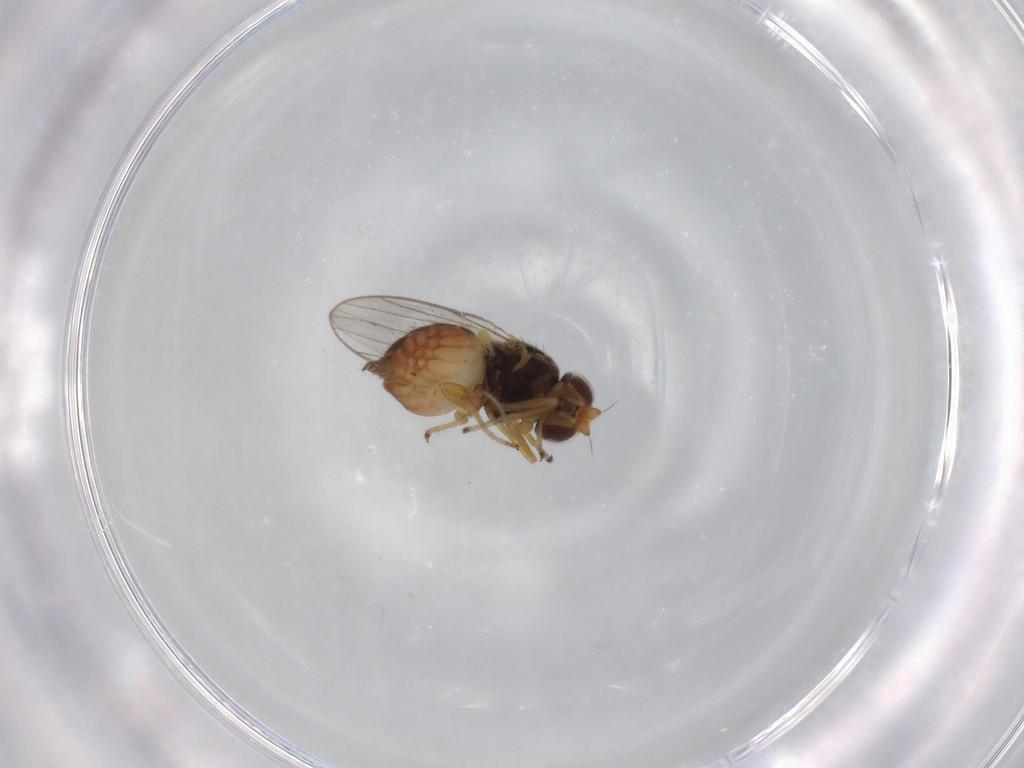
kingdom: Animalia
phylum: Arthropoda
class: Insecta
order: Diptera
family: Chloropidae
